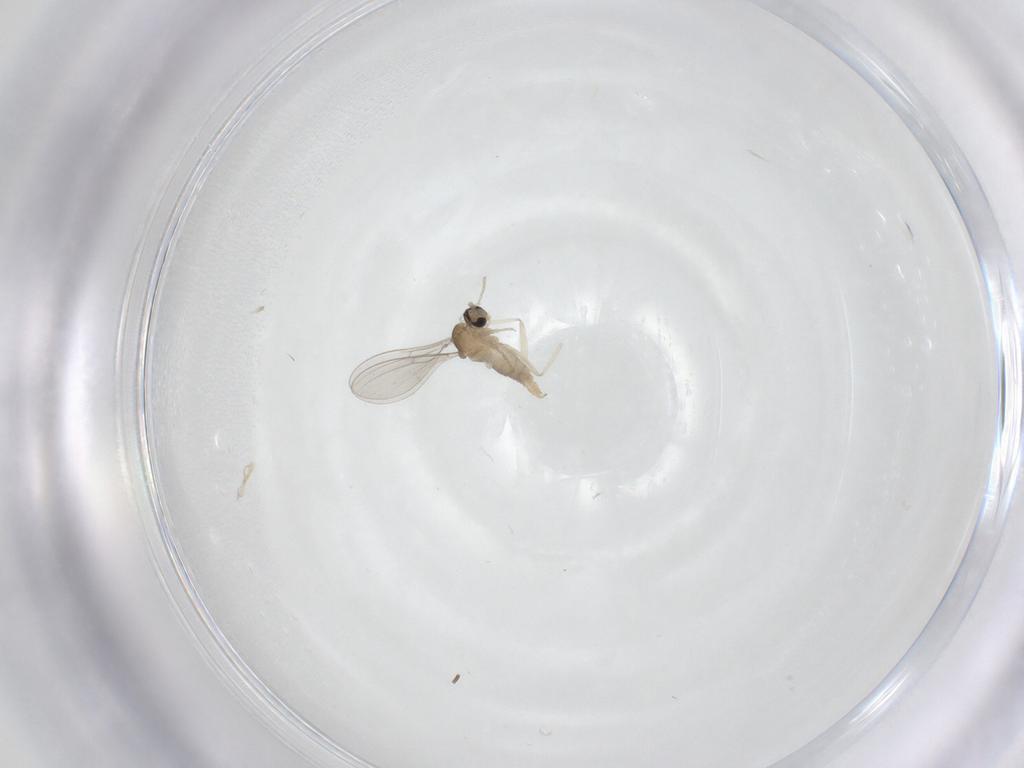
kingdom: Animalia
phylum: Arthropoda
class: Insecta
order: Diptera
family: Cecidomyiidae
